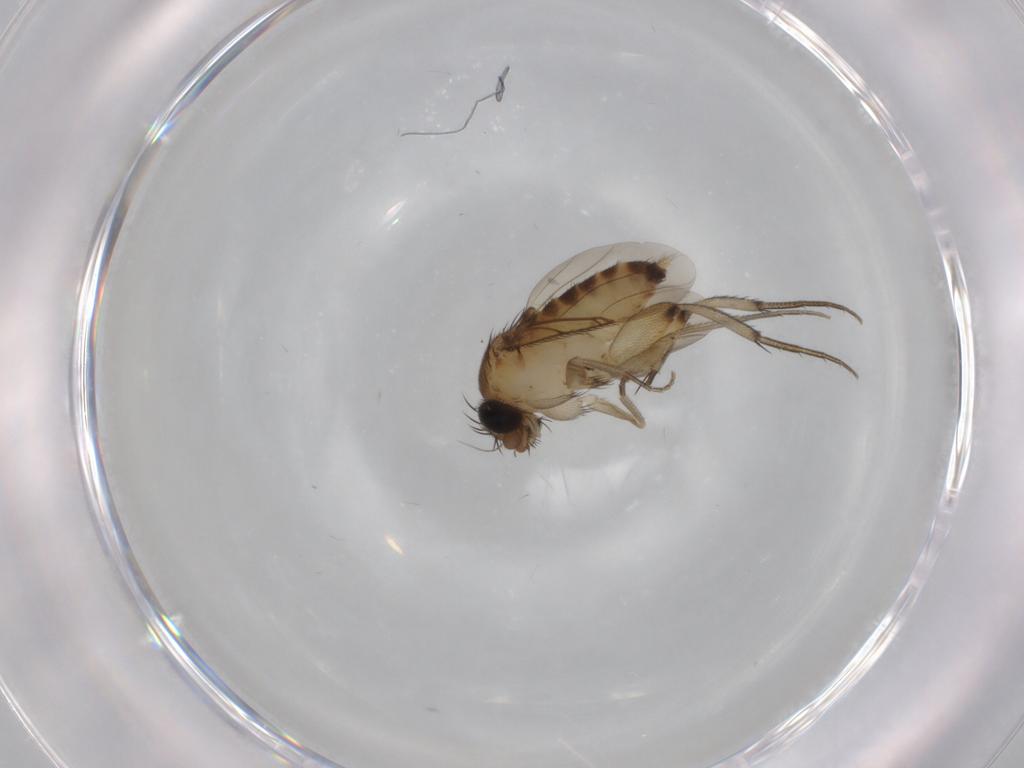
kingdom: Animalia
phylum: Arthropoda
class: Insecta
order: Diptera
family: Phoridae
